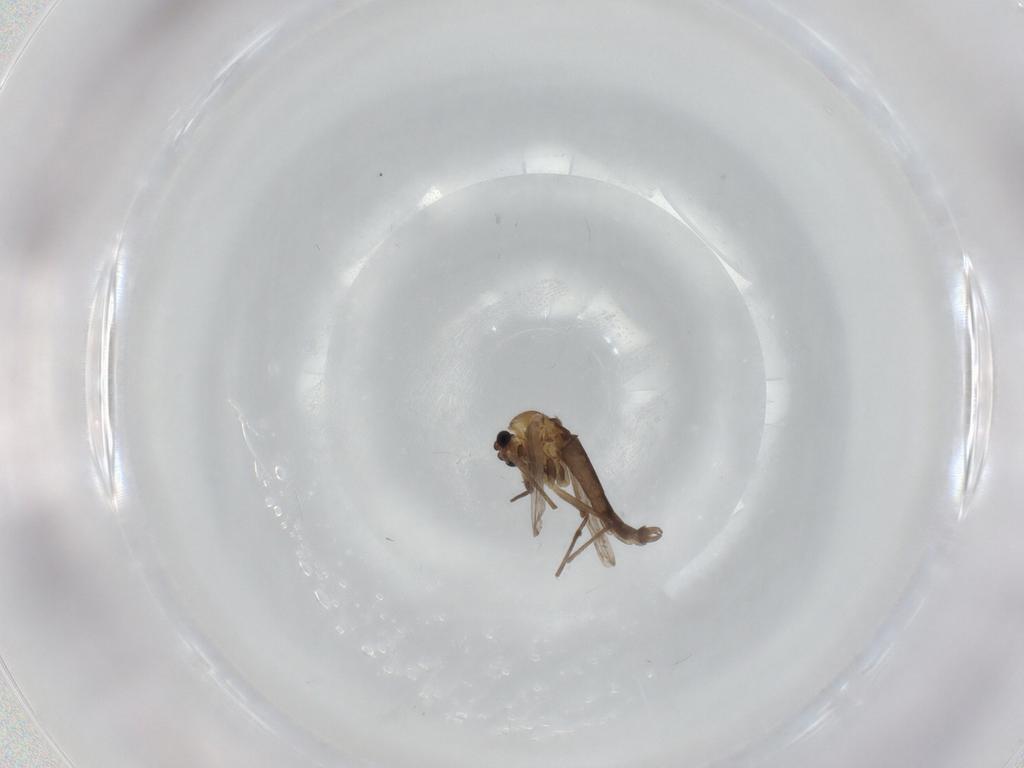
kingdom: Animalia
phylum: Arthropoda
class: Insecta
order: Diptera
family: Chironomidae
